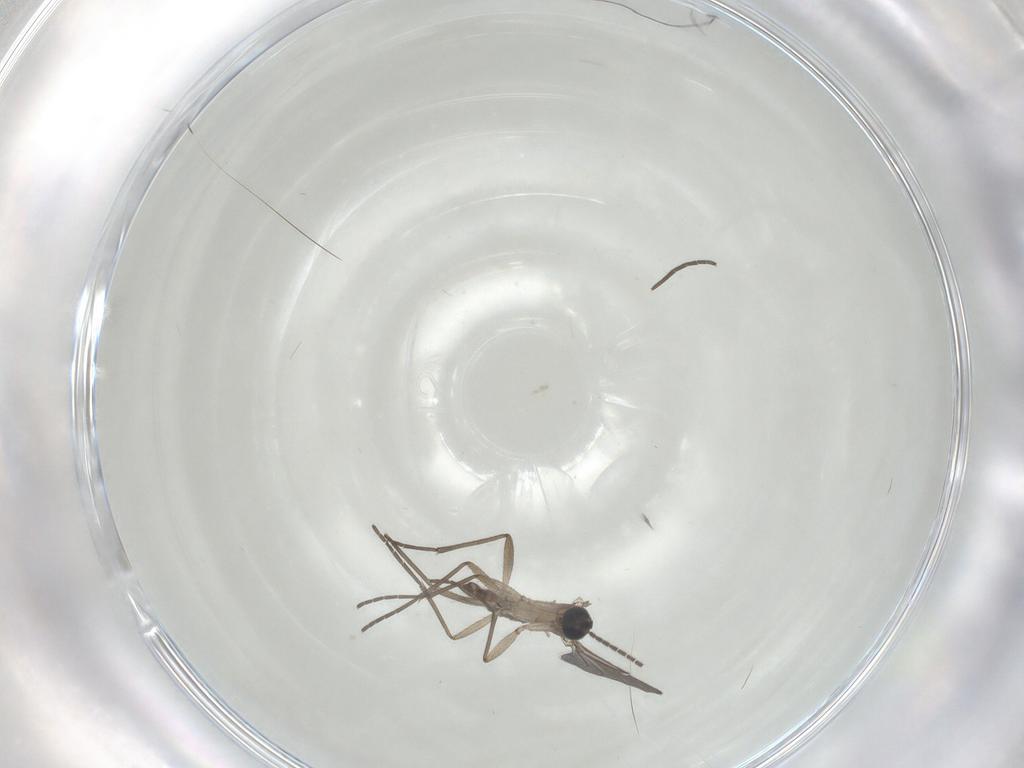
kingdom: Animalia
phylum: Arthropoda
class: Insecta
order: Diptera
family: Sciaridae
